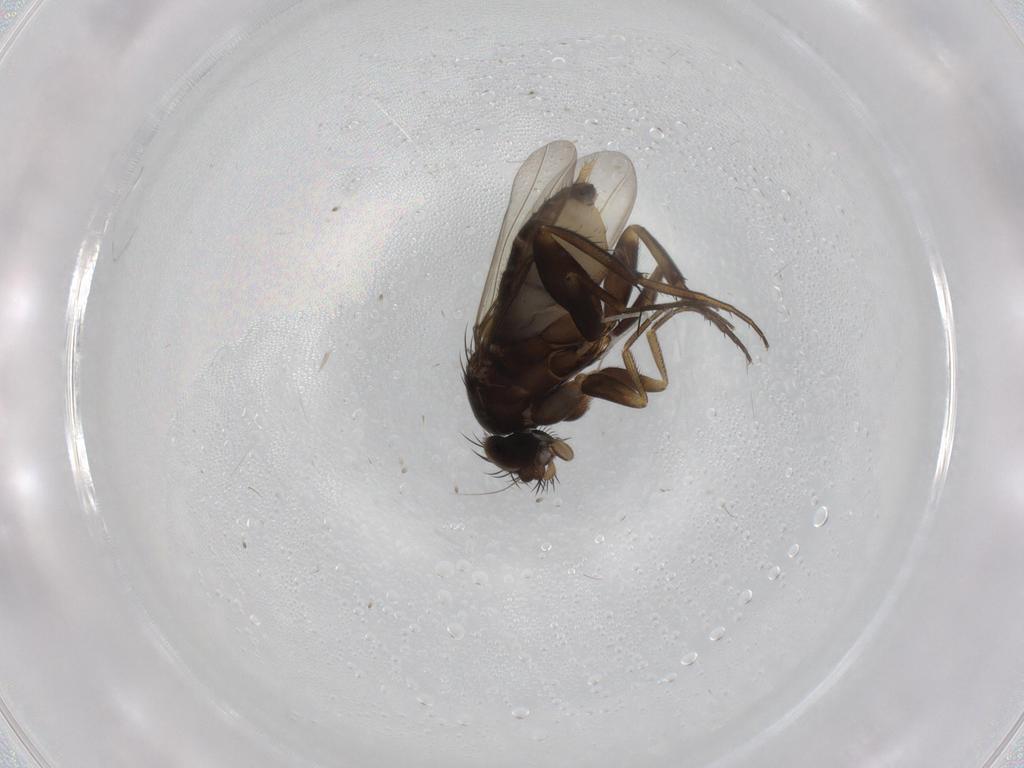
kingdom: Animalia
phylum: Arthropoda
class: Insecta
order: Diptera
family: Phoridae
